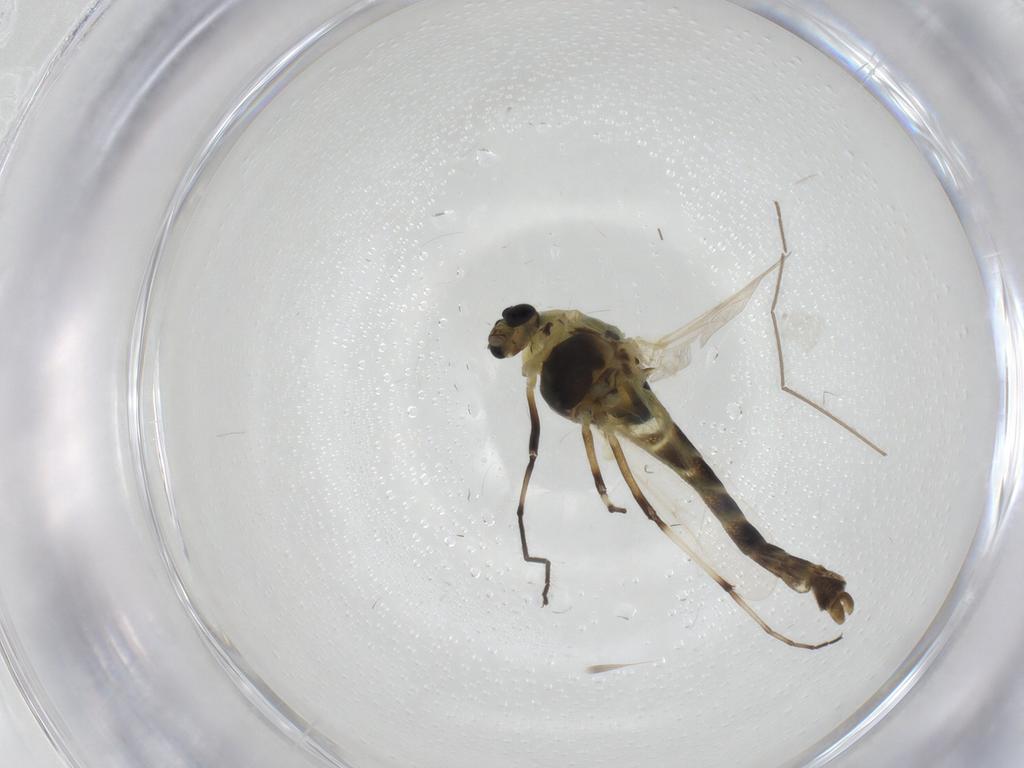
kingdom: Animalia
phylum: Arthropoda
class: Insecta
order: Diptera
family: Chironomidae
